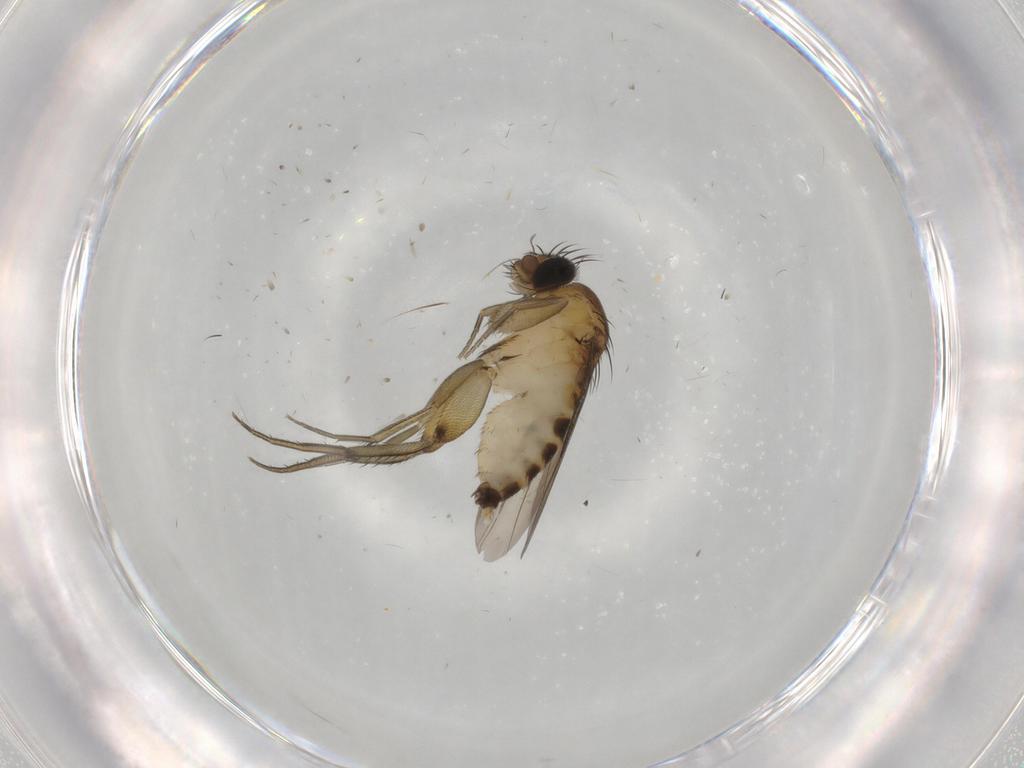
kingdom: Animalia
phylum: Arthropoda
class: Insecta
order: Diptera
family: Phoridae
